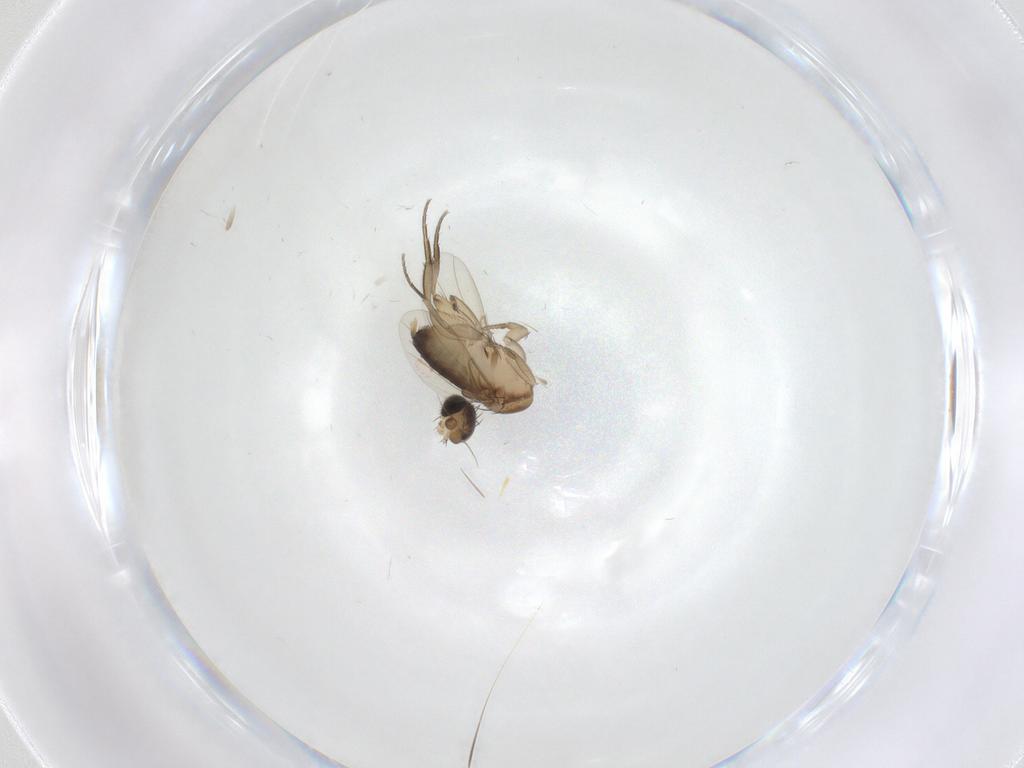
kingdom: Animalia
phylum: Arthropoda
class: Insecta
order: Diptera
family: Phoridae
